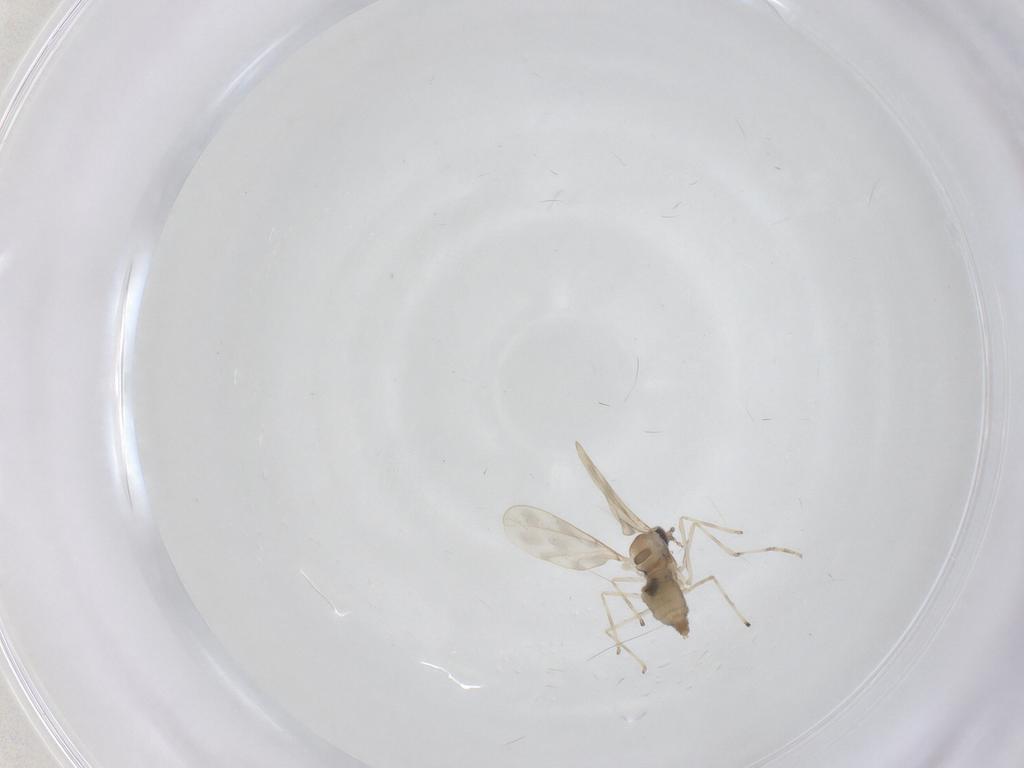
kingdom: Animalia
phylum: Arthropoda
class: Insecta
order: Diptera
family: Cecidomyiidae
